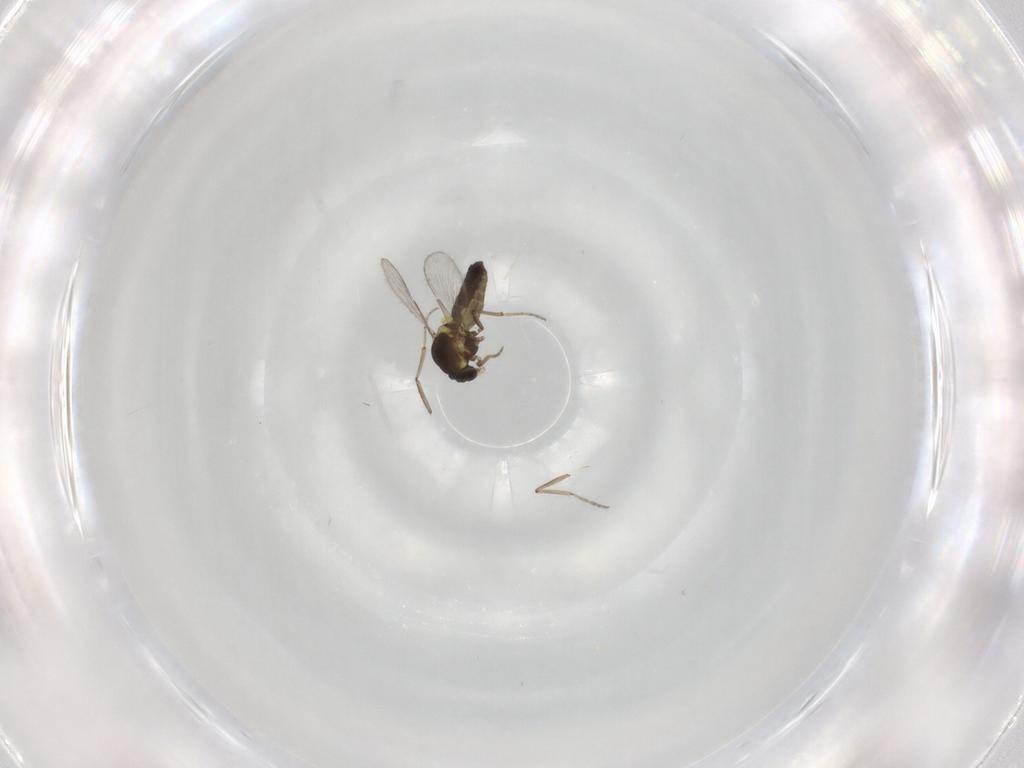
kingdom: Animalia
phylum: Arthropoda
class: Insecta
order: Diptera
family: Ceratopogonidae
